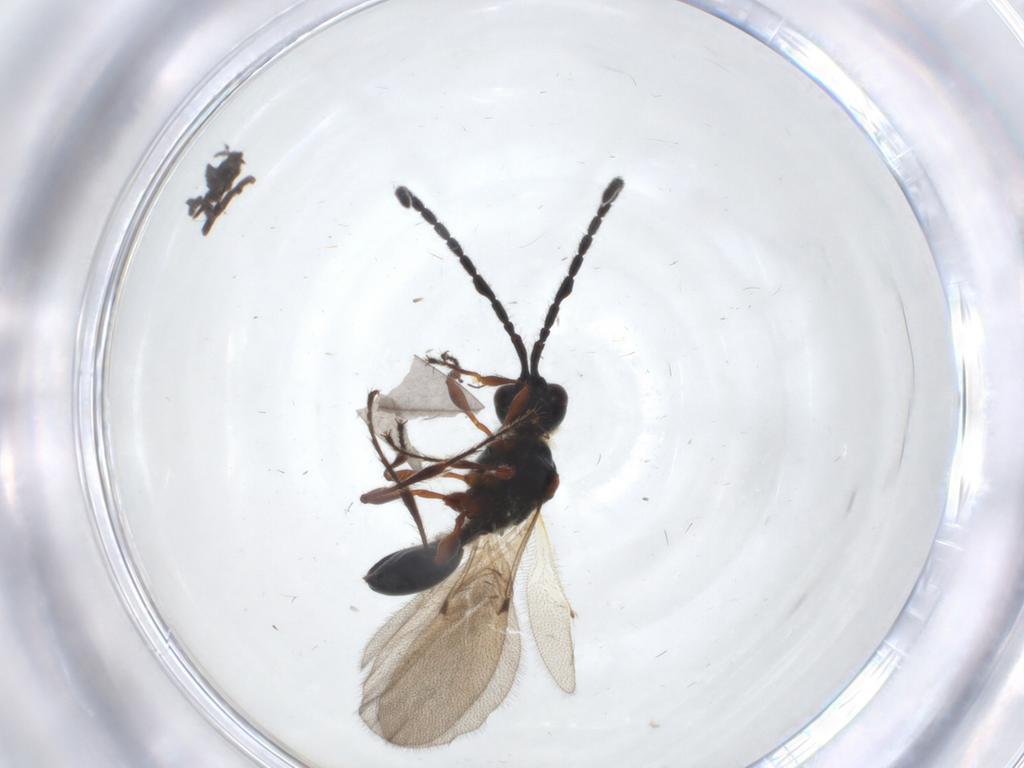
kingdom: Animalia
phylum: Arthropoda
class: Insecta
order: Hymenoptera
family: Diapriidae
